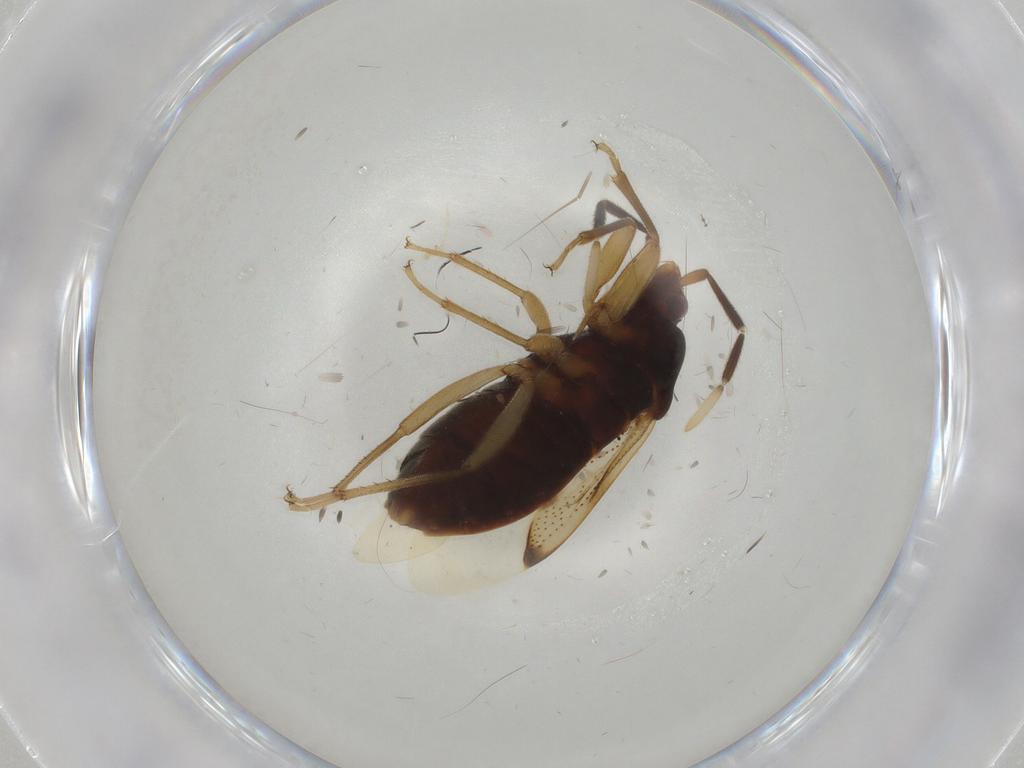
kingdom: Animalia
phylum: Arthropoda
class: Insecta
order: Hemiptera
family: Rhyparochromidae
